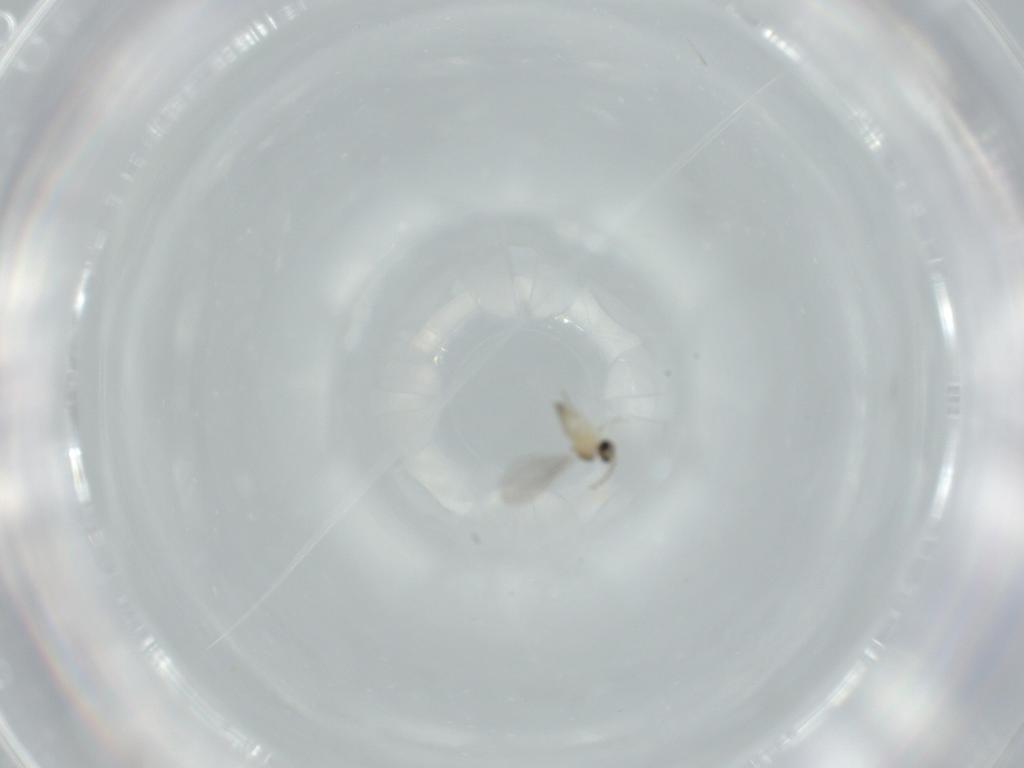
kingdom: Animalia
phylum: Arthropoda
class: Insecta
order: Diptera
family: Cecidomyiidae
